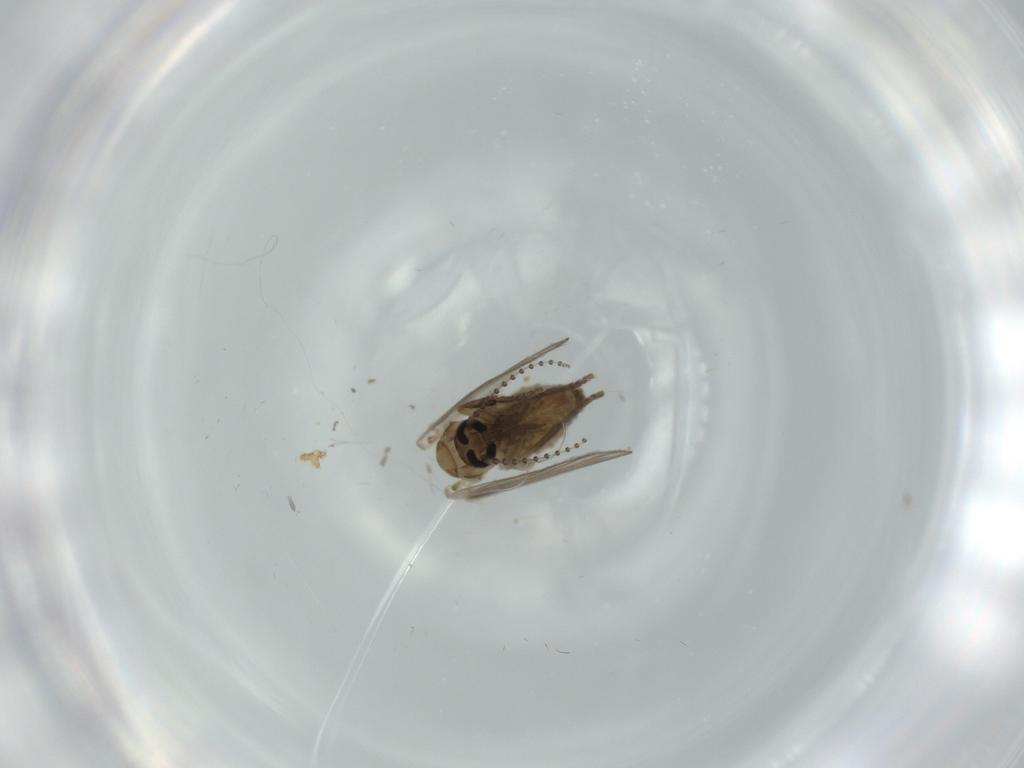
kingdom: Animalia
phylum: Arthropoda
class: Insecta
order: Diptera
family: Psychodidae
